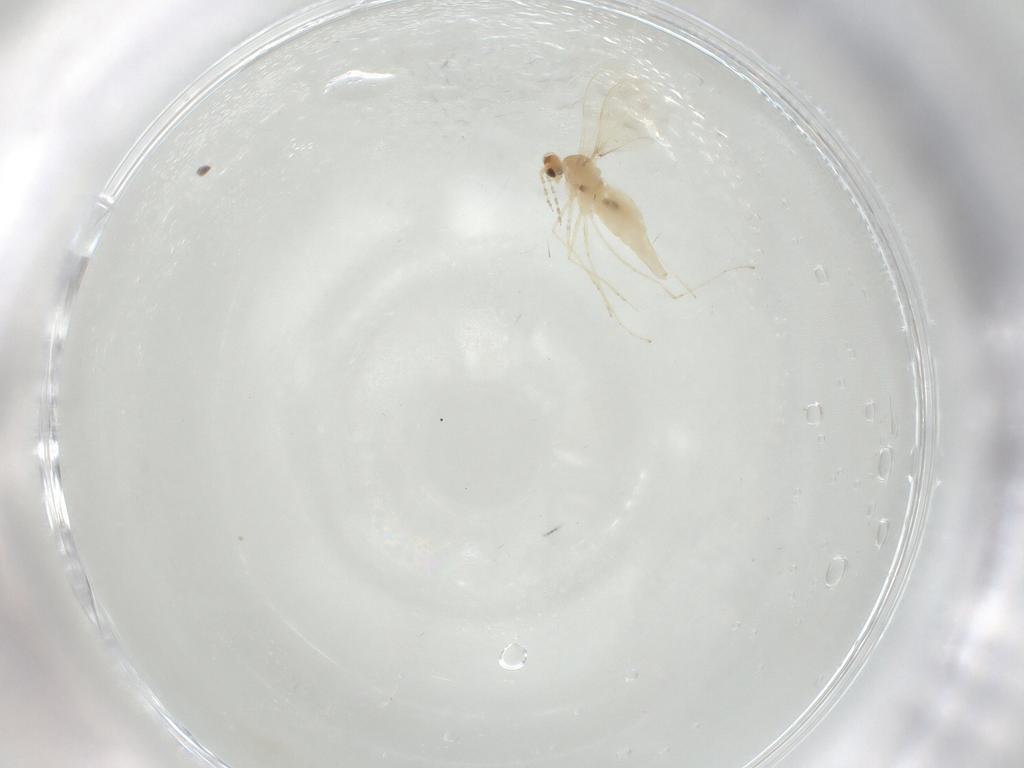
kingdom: Animalia
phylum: Arthropoda
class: Insecta
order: Diptera
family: Cecidomyiidae
